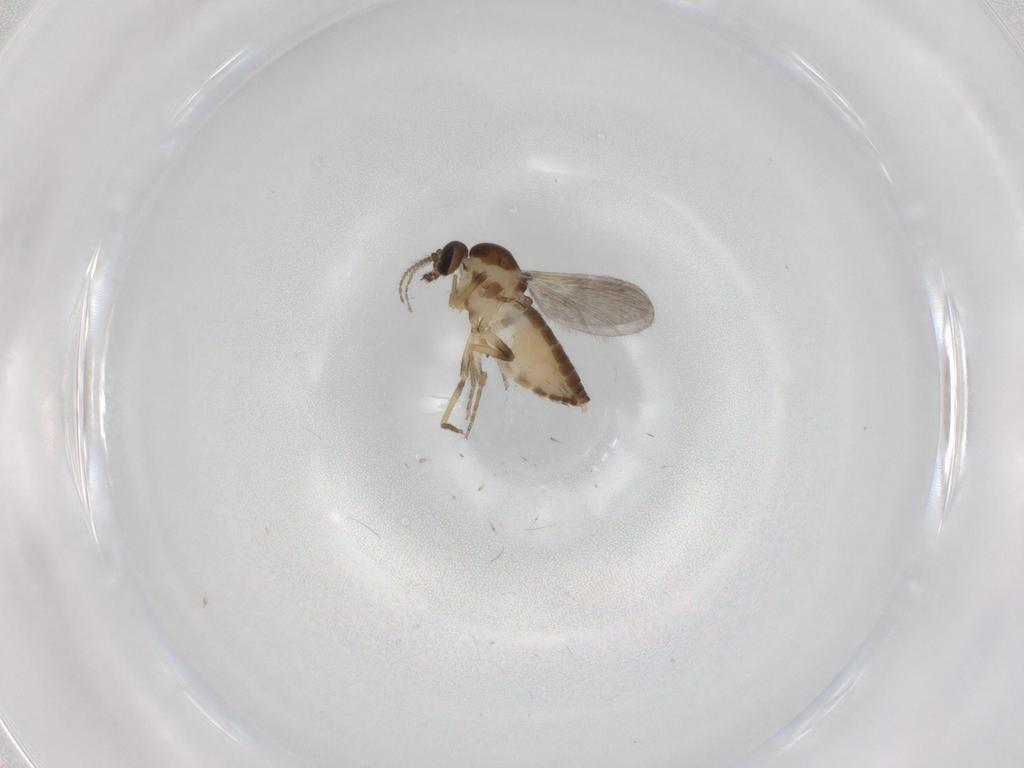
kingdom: Animalia
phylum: Arthropoda
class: Insecta
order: Diptera
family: Ceratopogonidae
